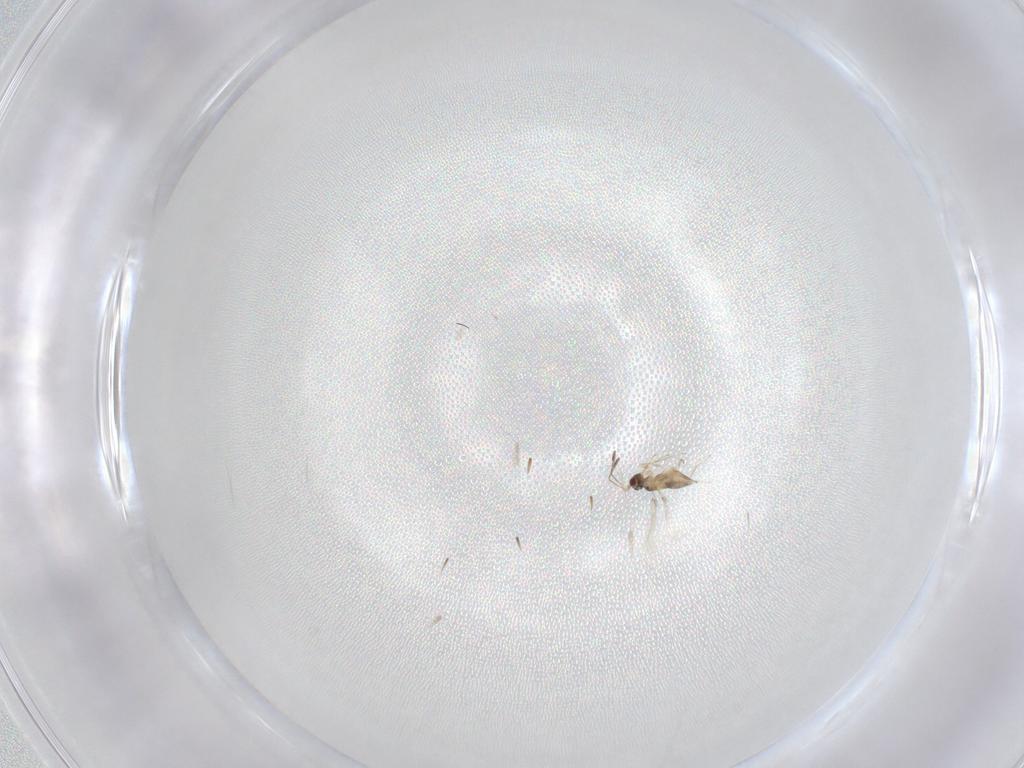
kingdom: Animalia
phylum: Arthropoda
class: Insecta
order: Hymenoptera
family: Mymaridae
